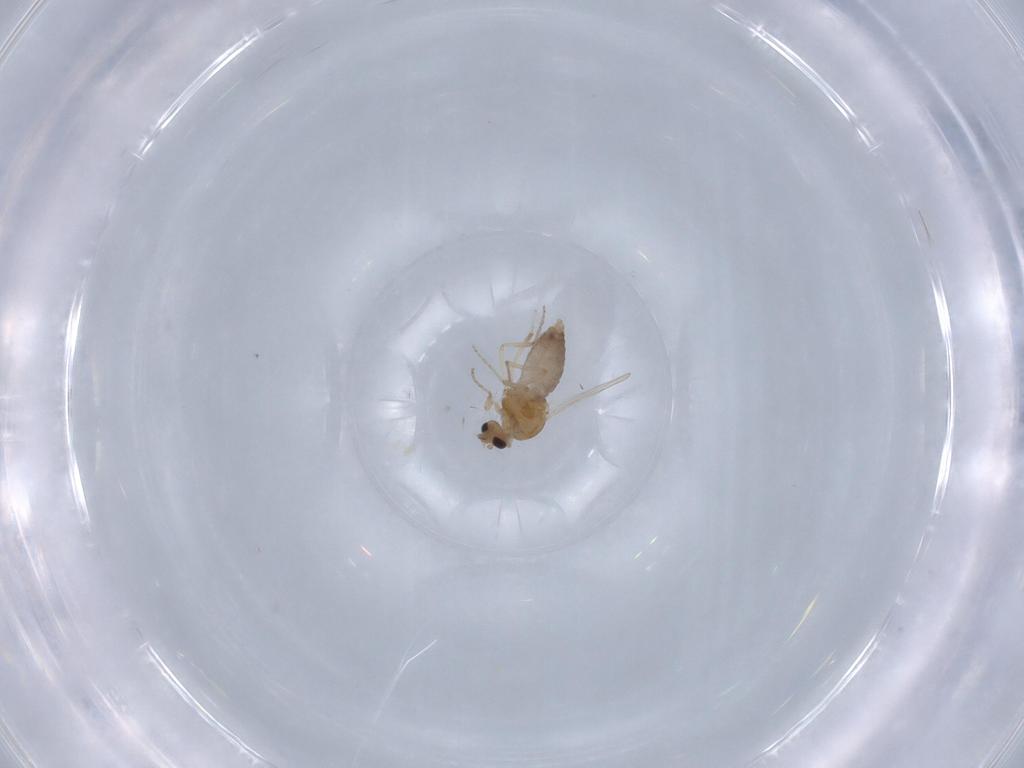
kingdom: Animalia
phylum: Arthropoda
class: Insecta
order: Diptera
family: Ceratopogonidae
